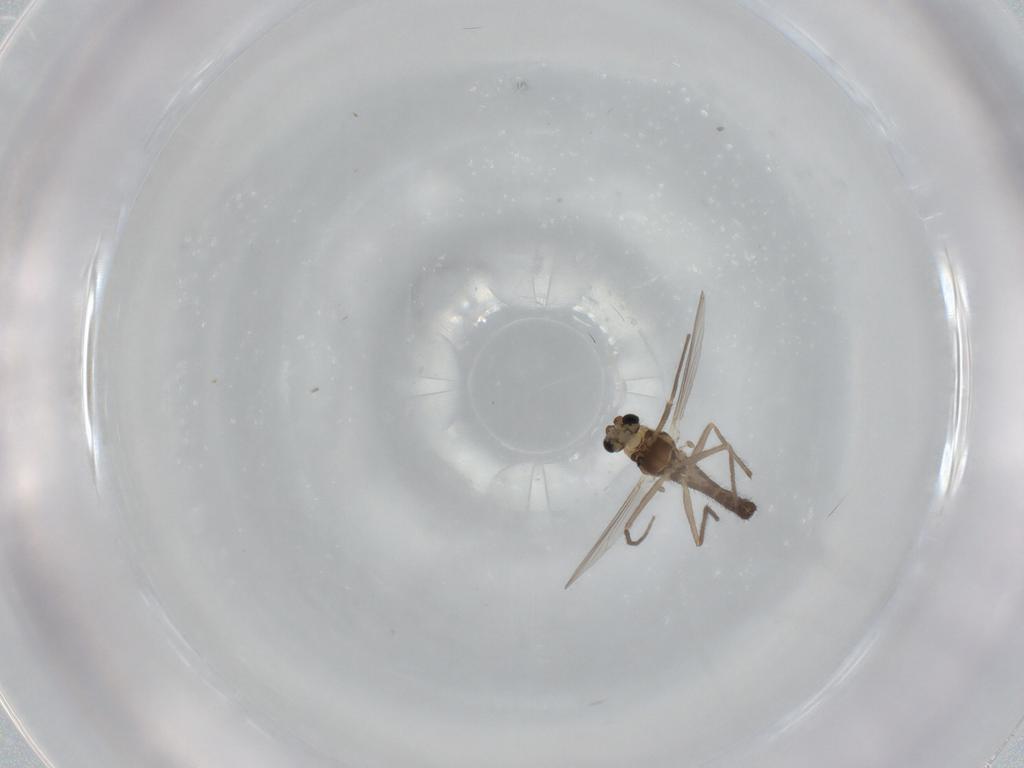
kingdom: Animalia
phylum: Arthropoda
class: Insecta
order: Diptera
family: Chironomidae
